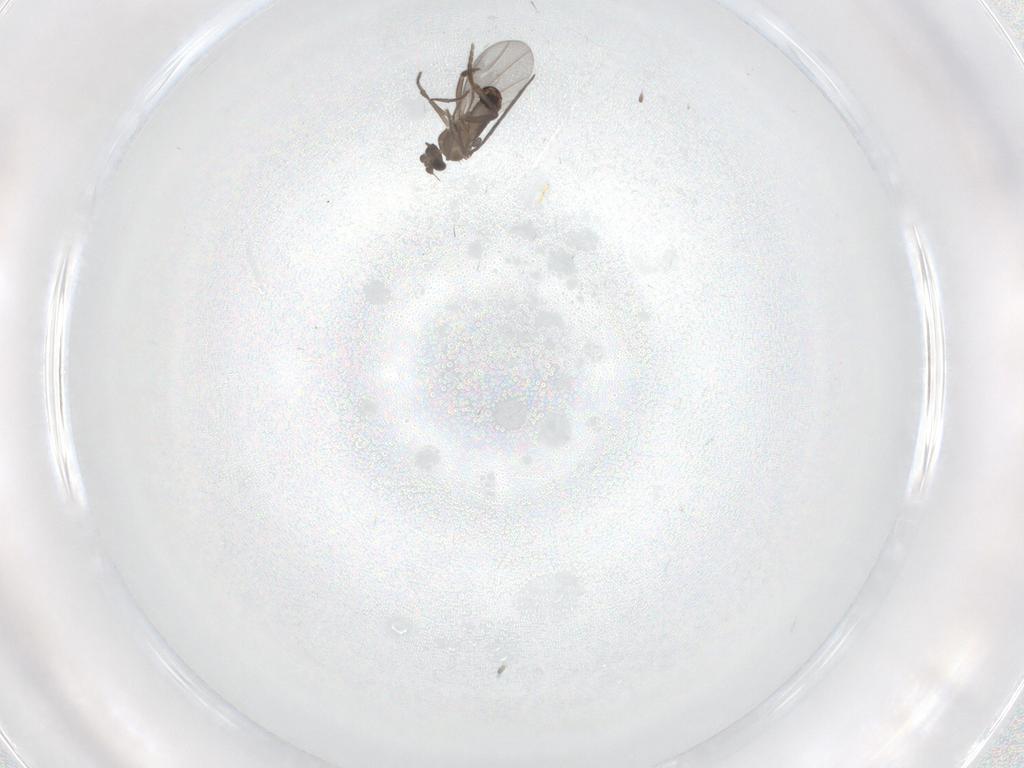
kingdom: Animalia
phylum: Arthropoda
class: Insecta
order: Diptera
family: Phoridae
